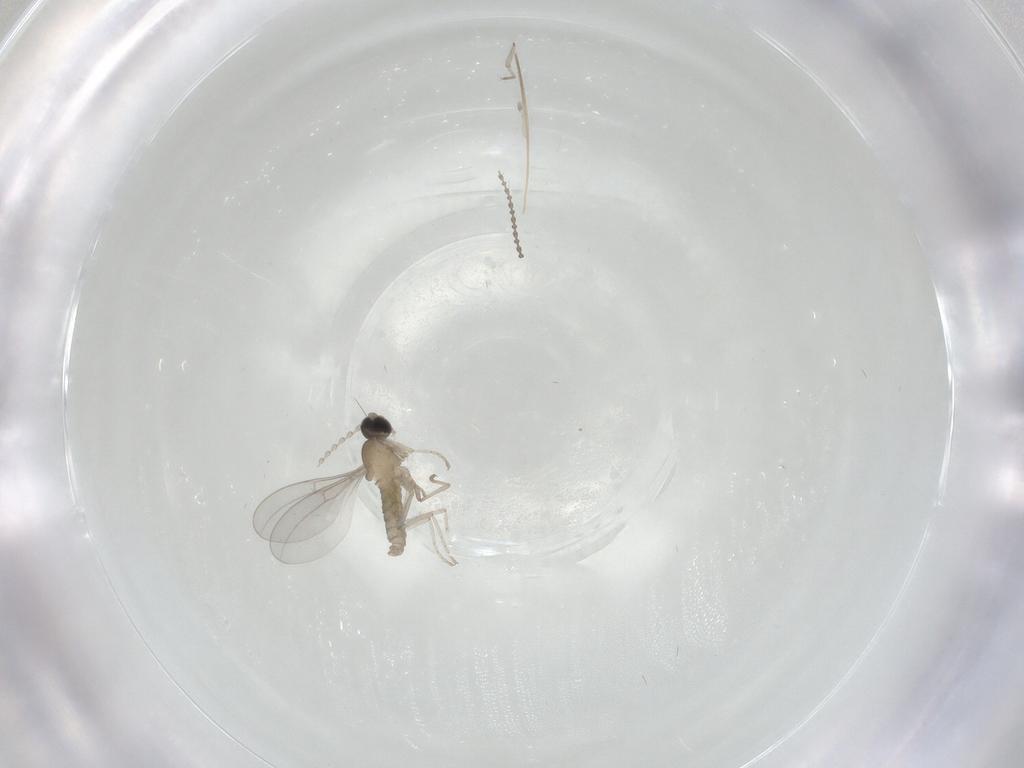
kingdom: Animalia
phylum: Arthropoda
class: Insecta
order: Diptera
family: Cecidomyiidae
